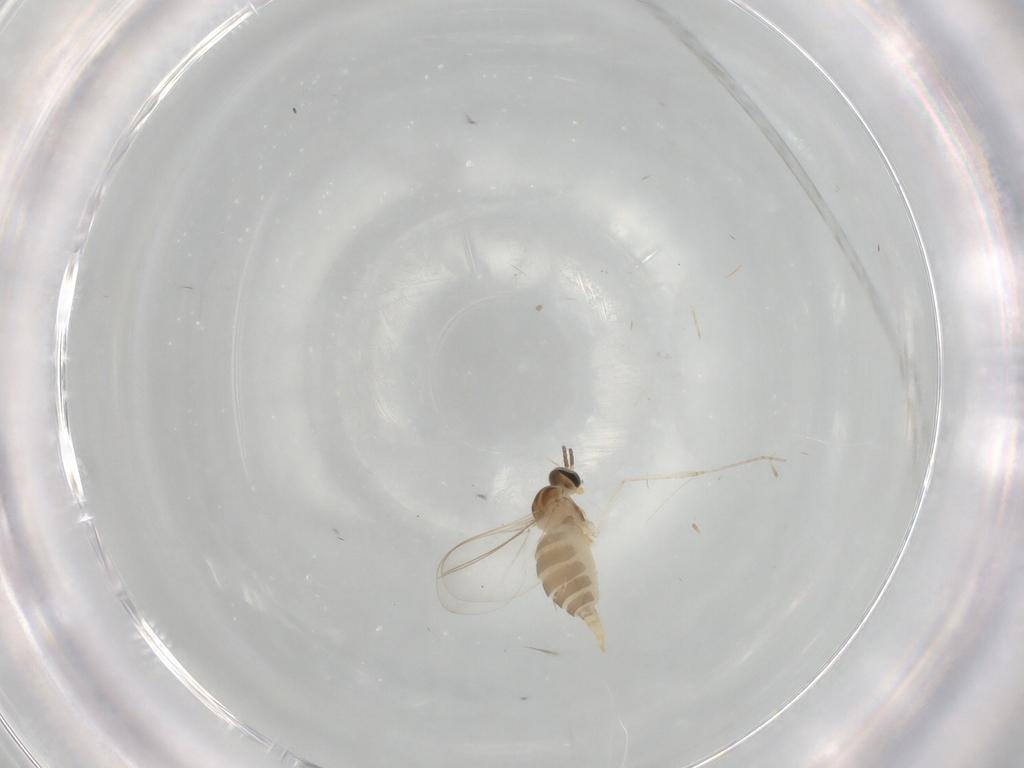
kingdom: Animalia
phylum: Arthropoda
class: Insecta
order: Diptera
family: Cecidomyiidae
